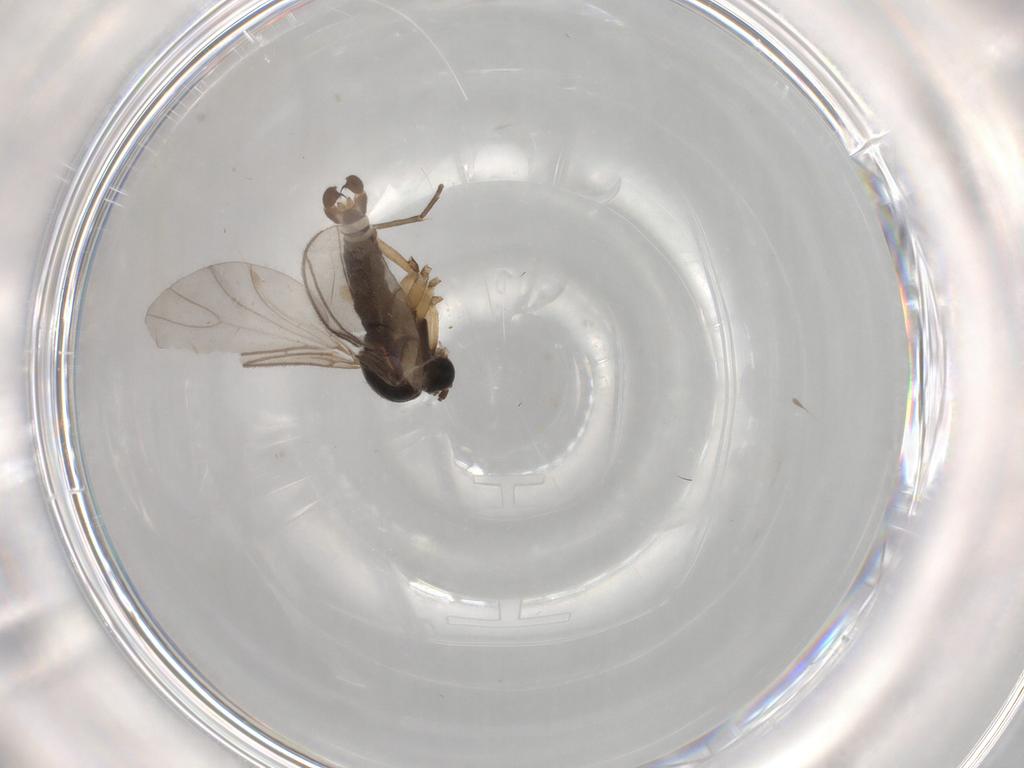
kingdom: Animalia
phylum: Arthropoda
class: Insecta
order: Diptera
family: Sciaridae
